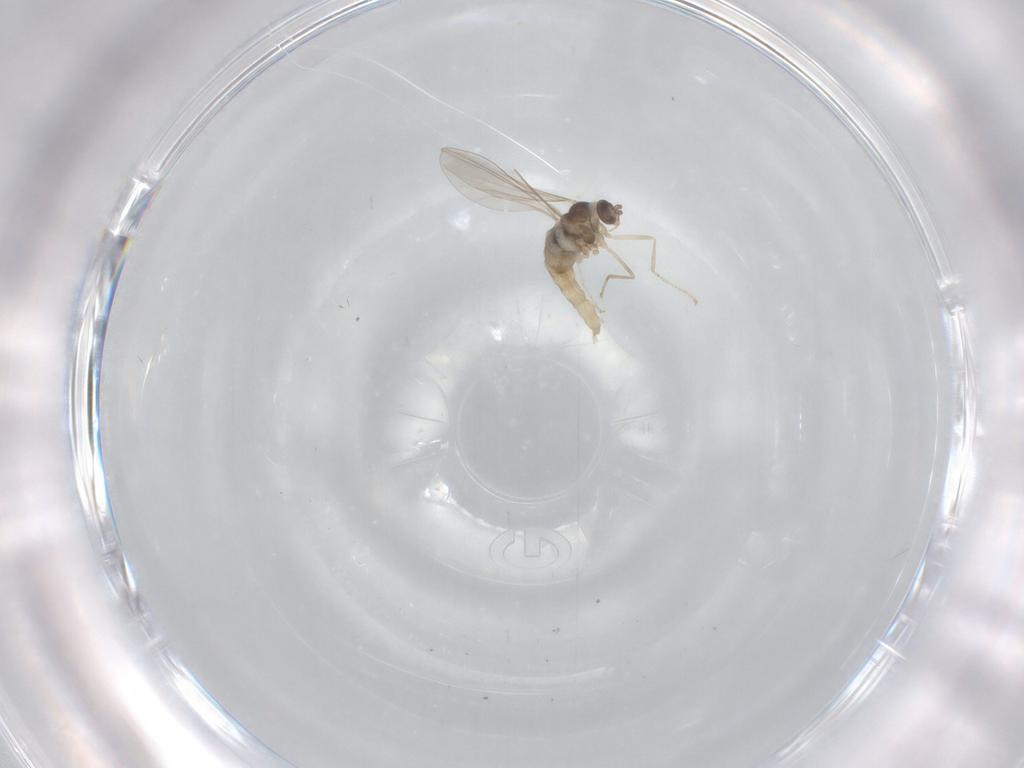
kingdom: Animalia
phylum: Arthropoda
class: Insecta
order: Diptera
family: Cecidomyiidae
